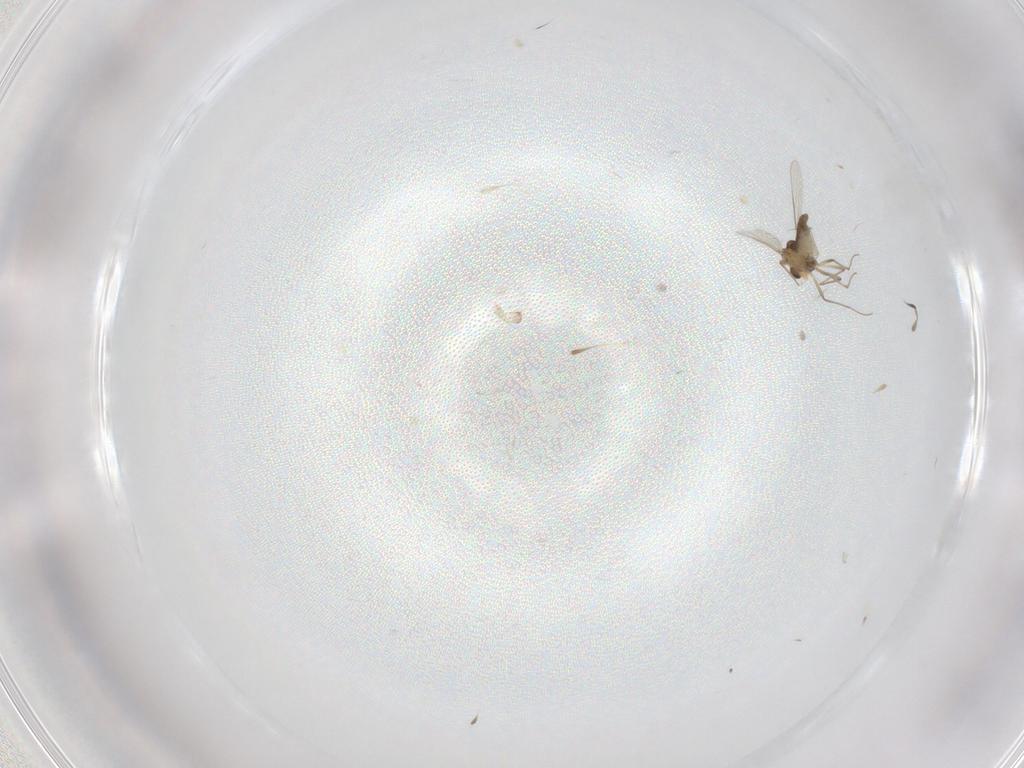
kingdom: Animalia
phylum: Arthropoda
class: Insecta
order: Diptera
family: Chironomidae
